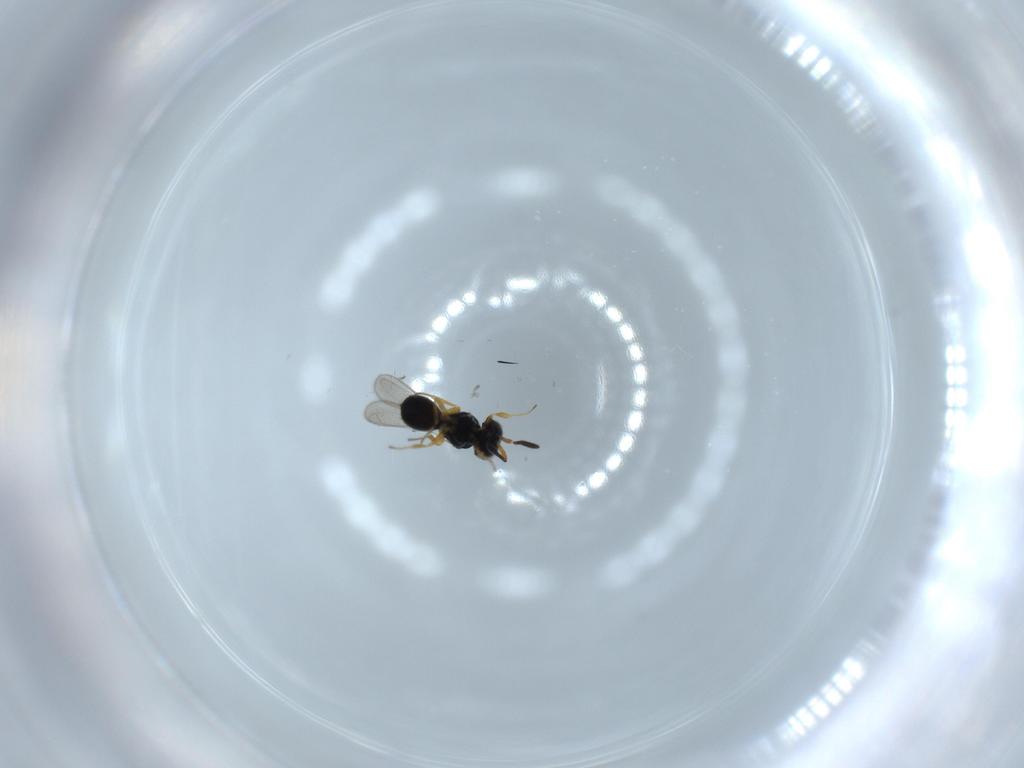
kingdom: Animalia
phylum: Arthropoda
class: Insecta
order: Hymenoptera
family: Scelionidae
